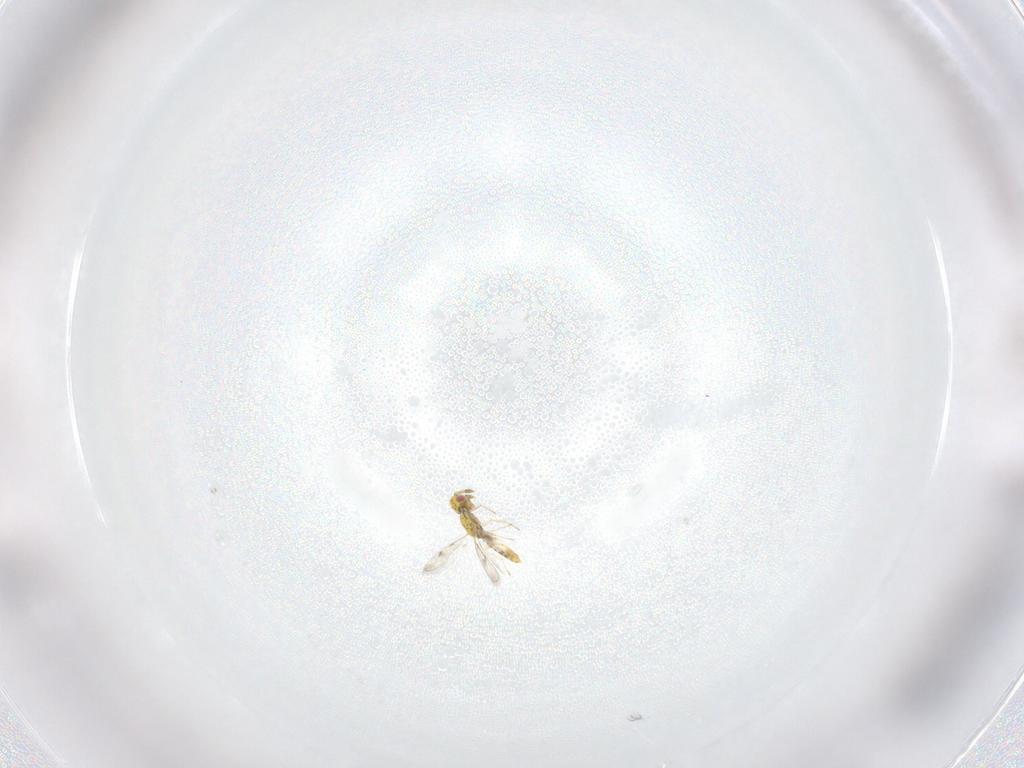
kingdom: Animalia
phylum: Arthropoda
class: Insecta
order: Hymenoptera
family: Eulophidae
